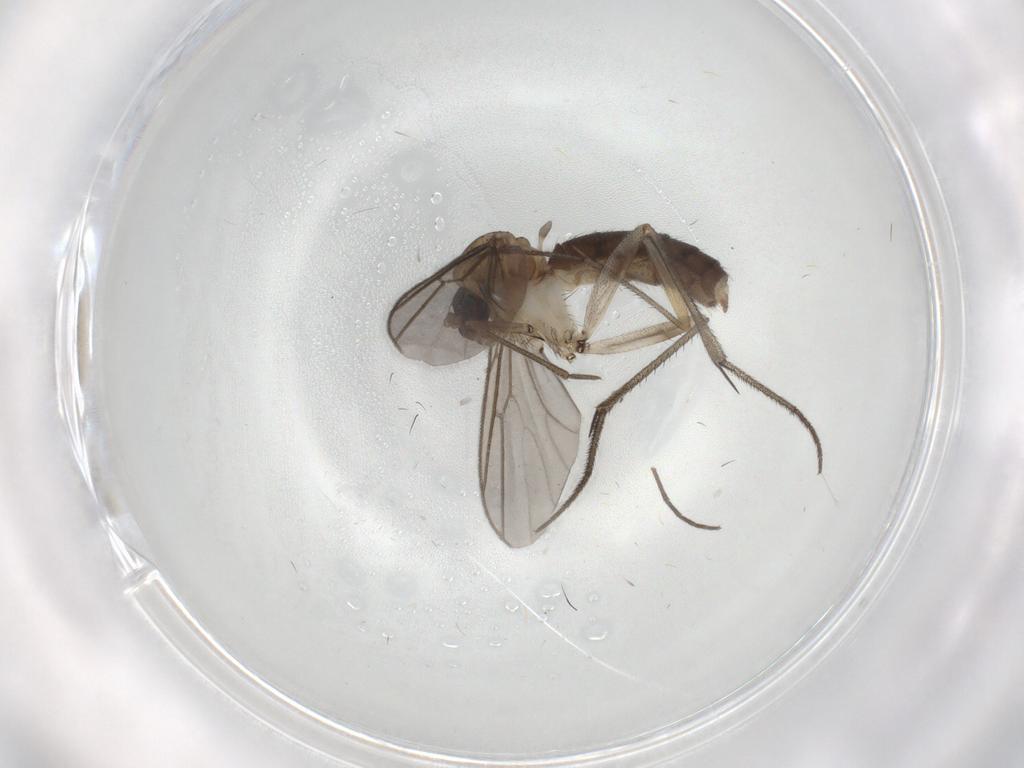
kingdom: Animalia
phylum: Arthropoda
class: Insecta
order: Diptera
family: Mycetophilidae
